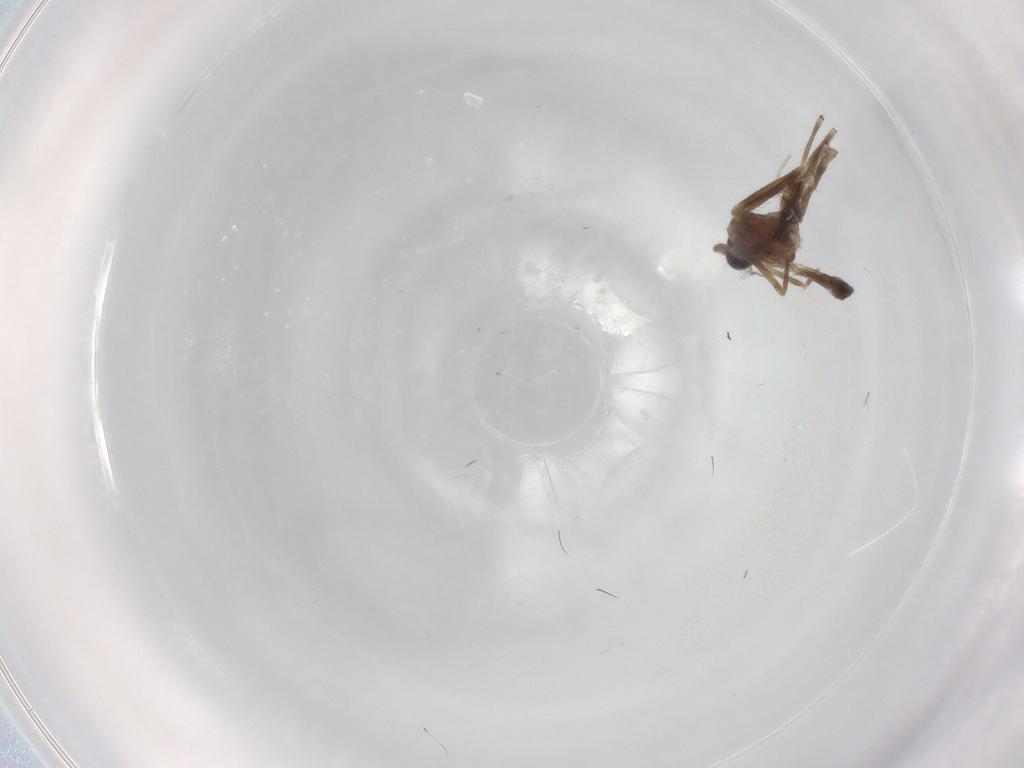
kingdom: Animalia
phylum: Arthropoda
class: Insecta
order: Diptera
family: Chironomidae
